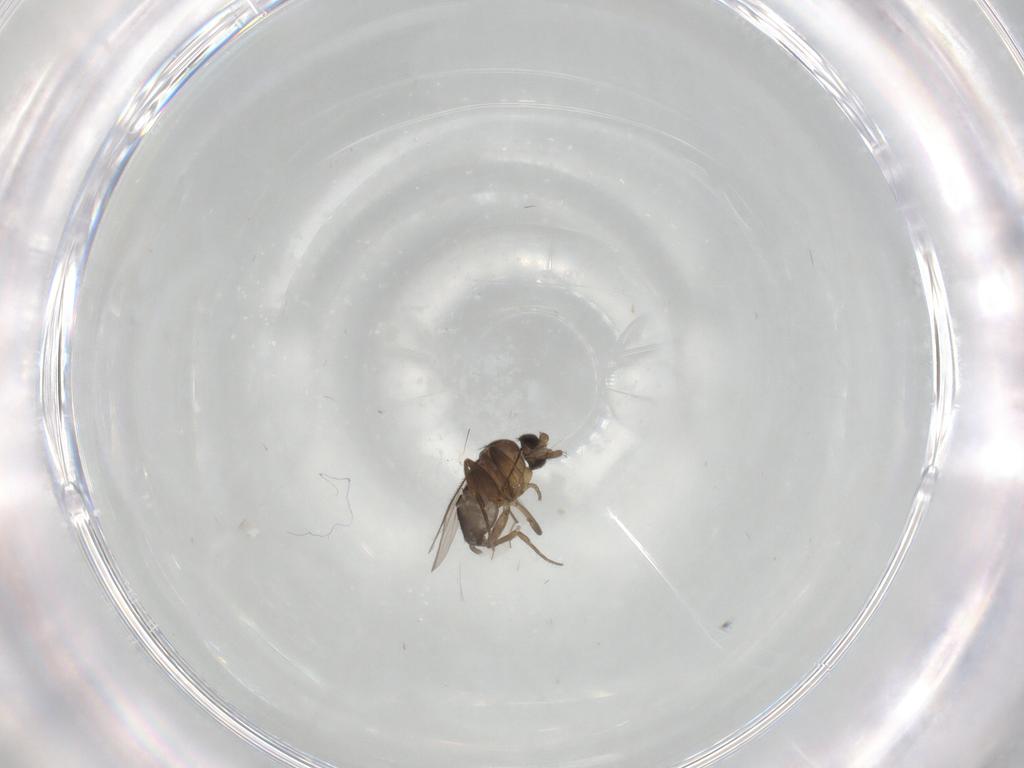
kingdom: Animalia
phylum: Arthropoda
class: Insecta
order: Diptera
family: Phoridae
